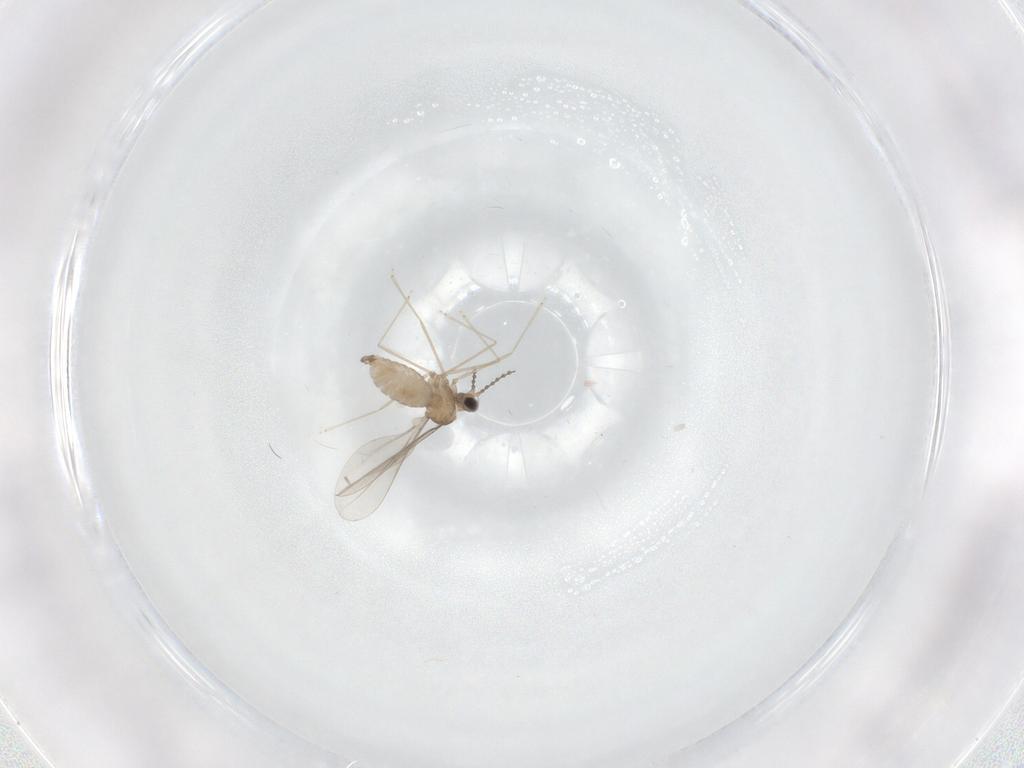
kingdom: Animalia
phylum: Arthropoda
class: Insecta
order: Diptera
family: Cecidomyiidae
